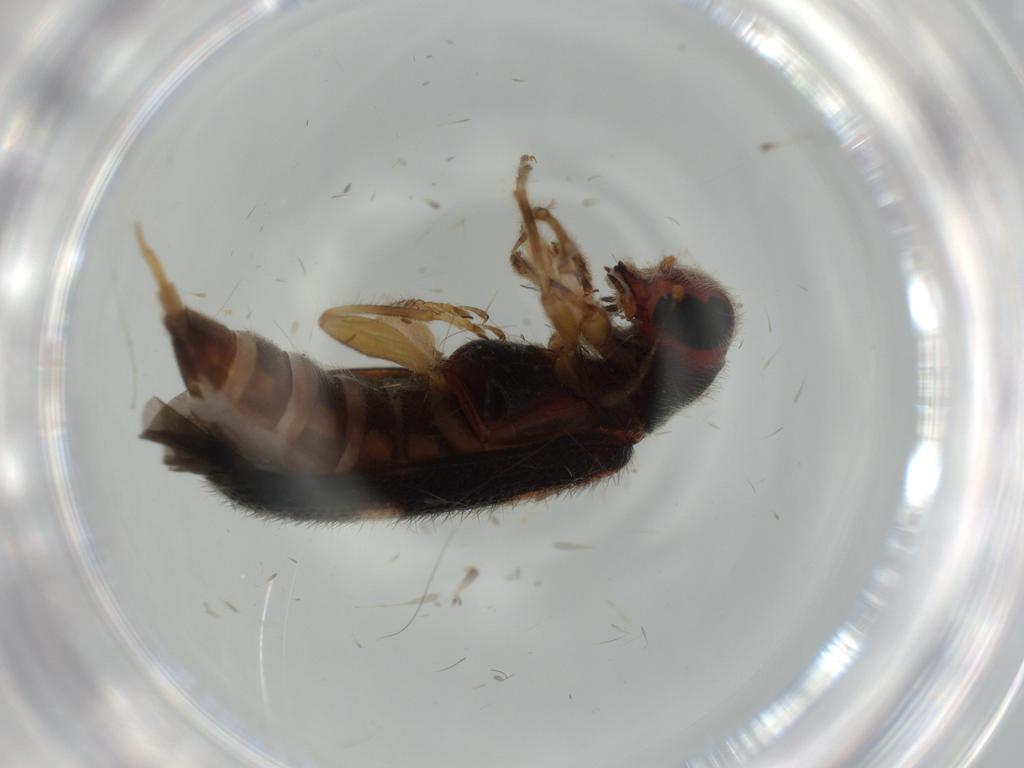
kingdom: Animalia
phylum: Arthropoda
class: Insecta
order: Coleoptera
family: Cleridae
